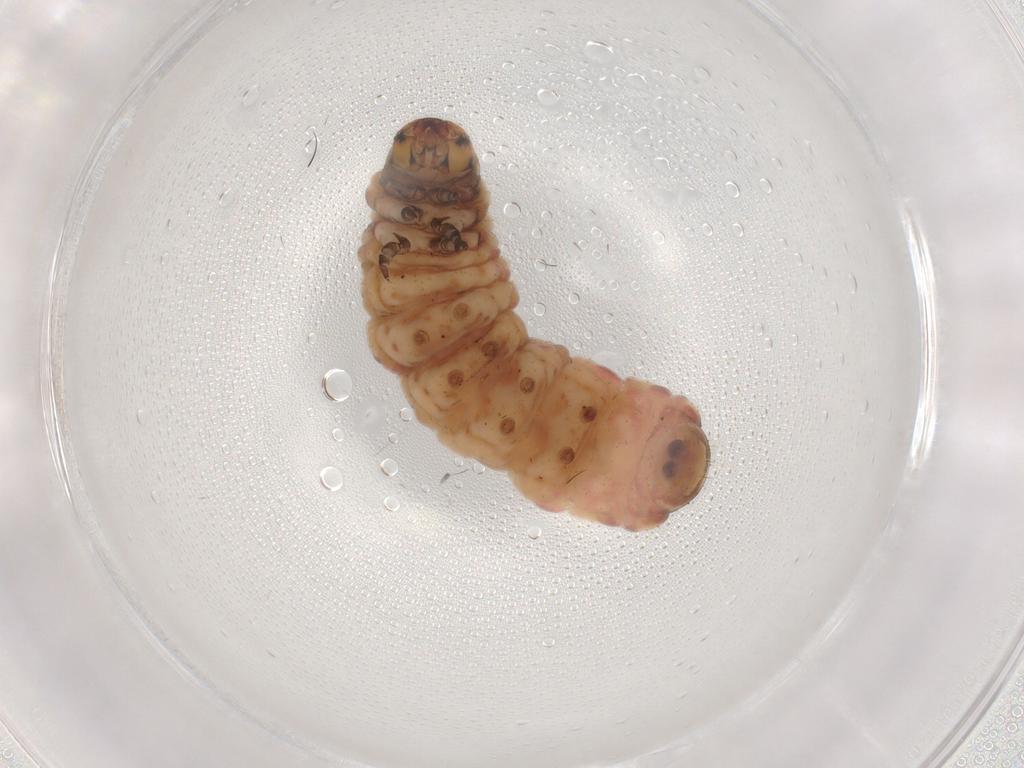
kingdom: Animalia
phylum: Arthropoda
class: Insecta
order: Lepidoptera
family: Noctuidae
